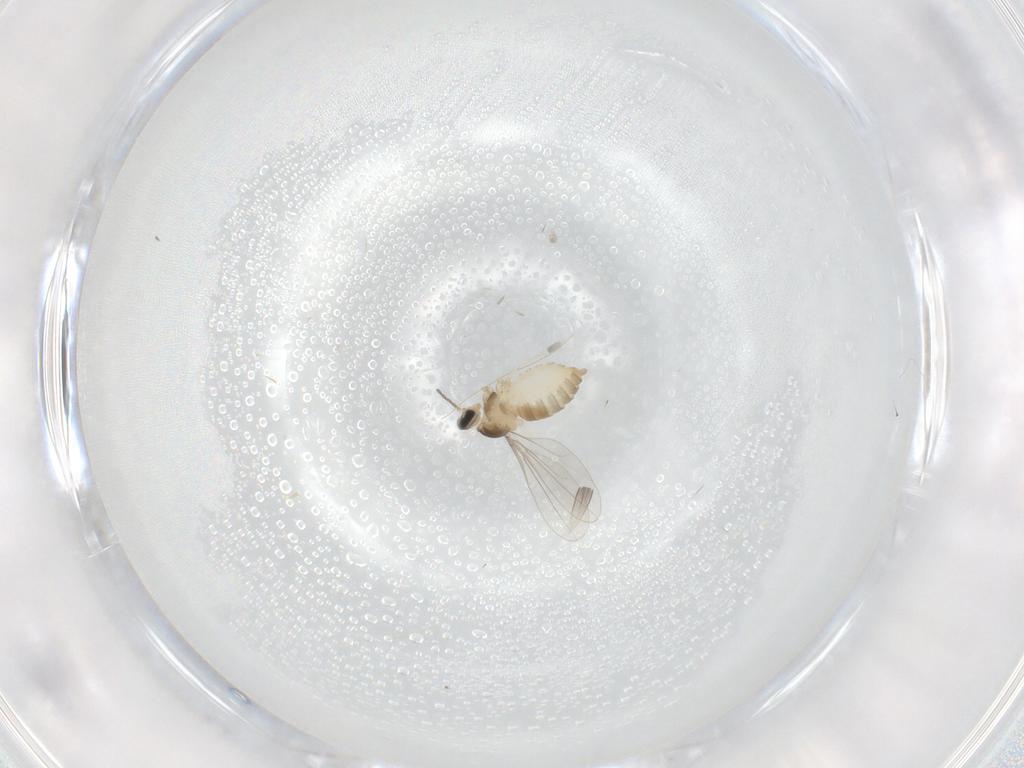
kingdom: Animalia
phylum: Arthropoda
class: Insecta
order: Diptera
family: Cecidomyiidae
